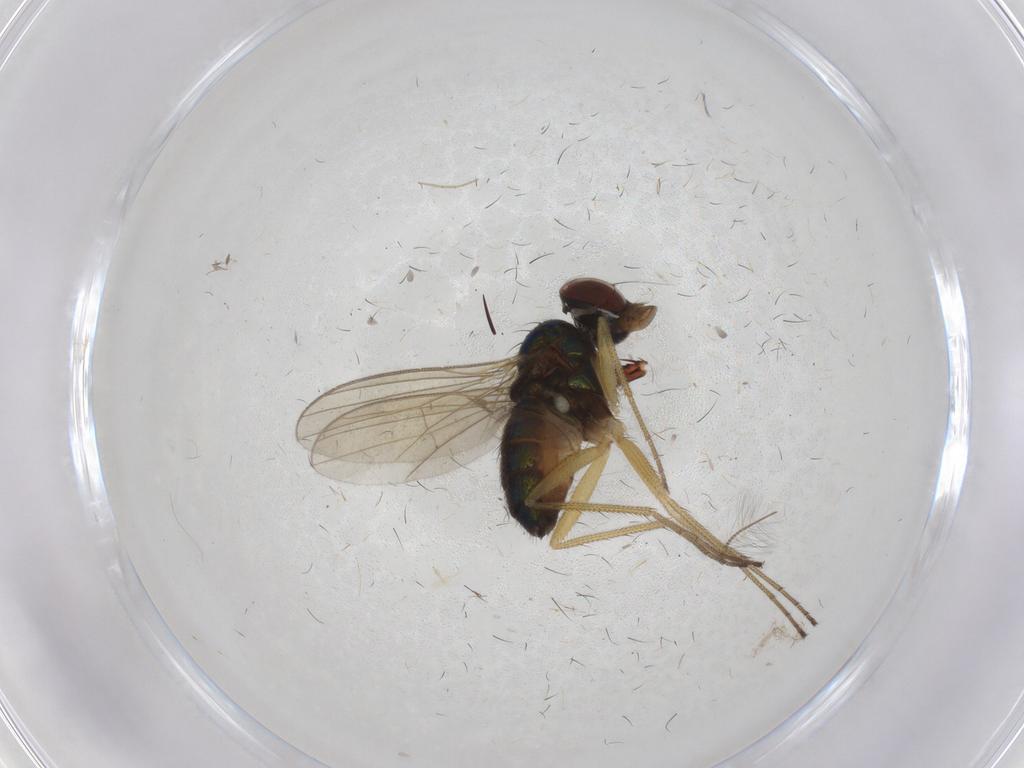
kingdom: Animalia
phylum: Arthropoda
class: Insecta
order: Diptera
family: Dolichopodidae
